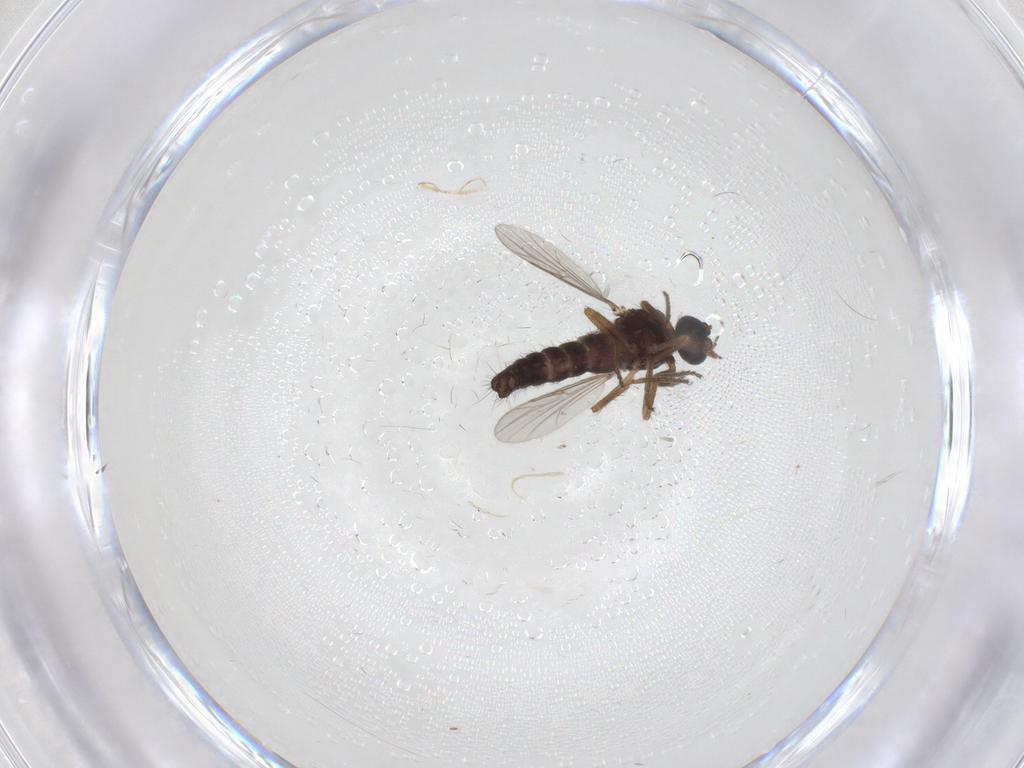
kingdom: Animalia
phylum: Arthropoda
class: Insecta
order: Diptera
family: Ceratopogonidae
